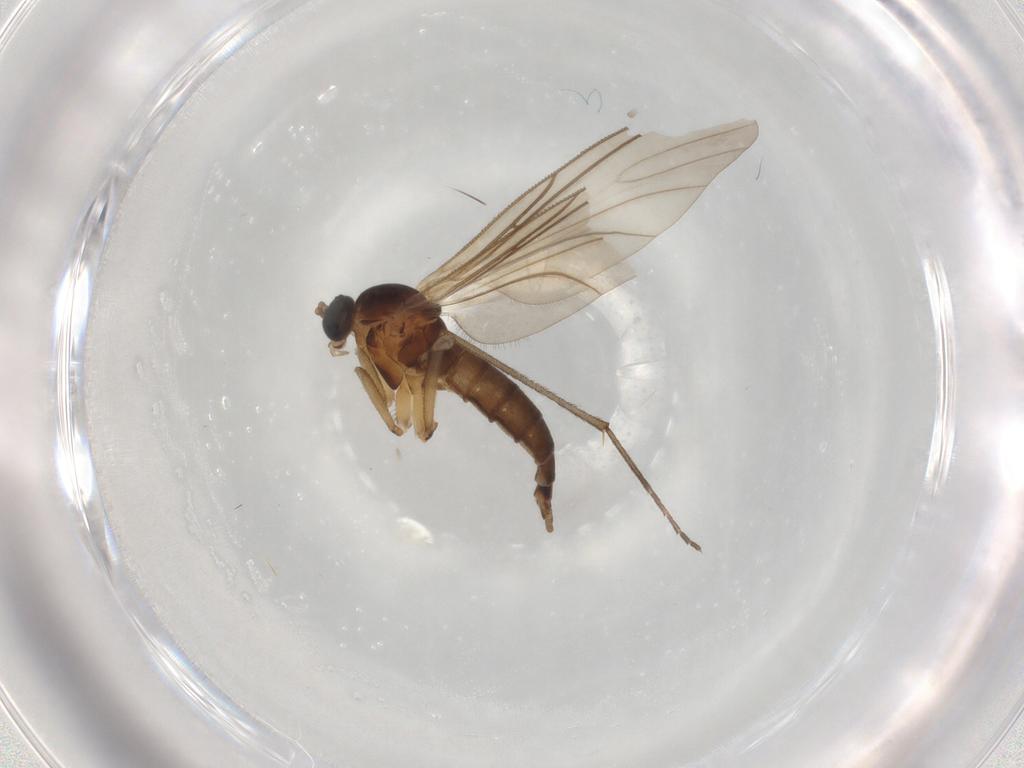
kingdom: Animalia
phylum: Arthropoda
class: Insecta
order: Diptera
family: Sciaridae
